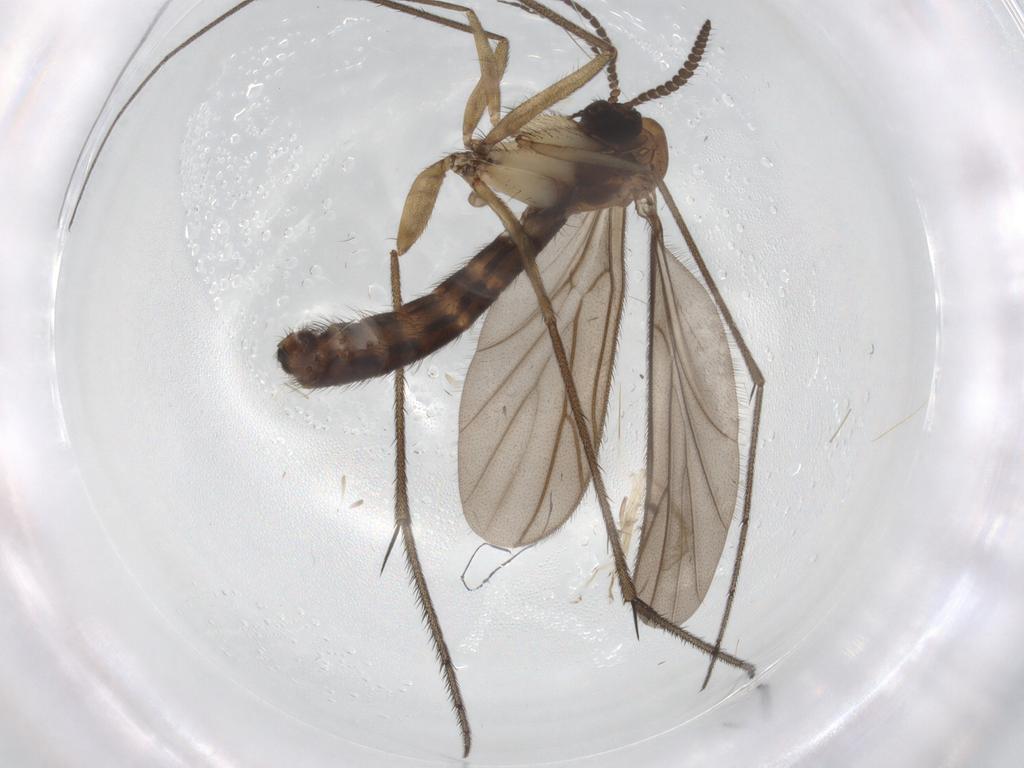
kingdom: Animalia
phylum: Arthropoda
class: Insecta
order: Diptera
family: Ditomyiidae
